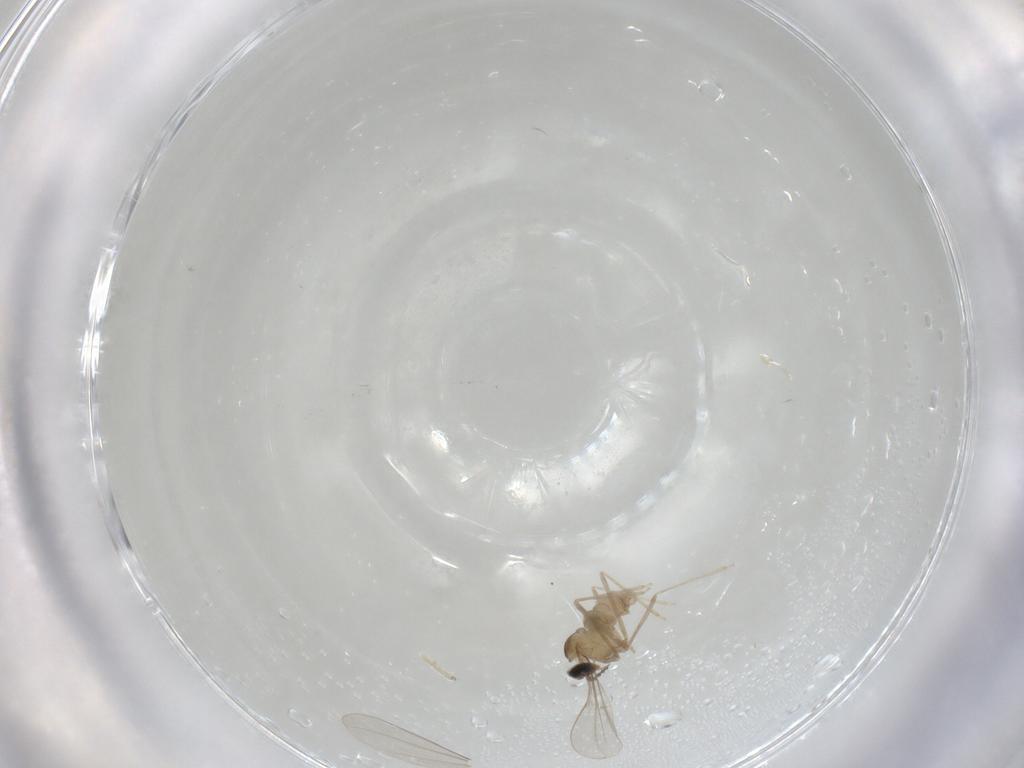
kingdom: Animalia
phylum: Arthropoda
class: Insecta
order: Diptera
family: Cecidomyiidae
